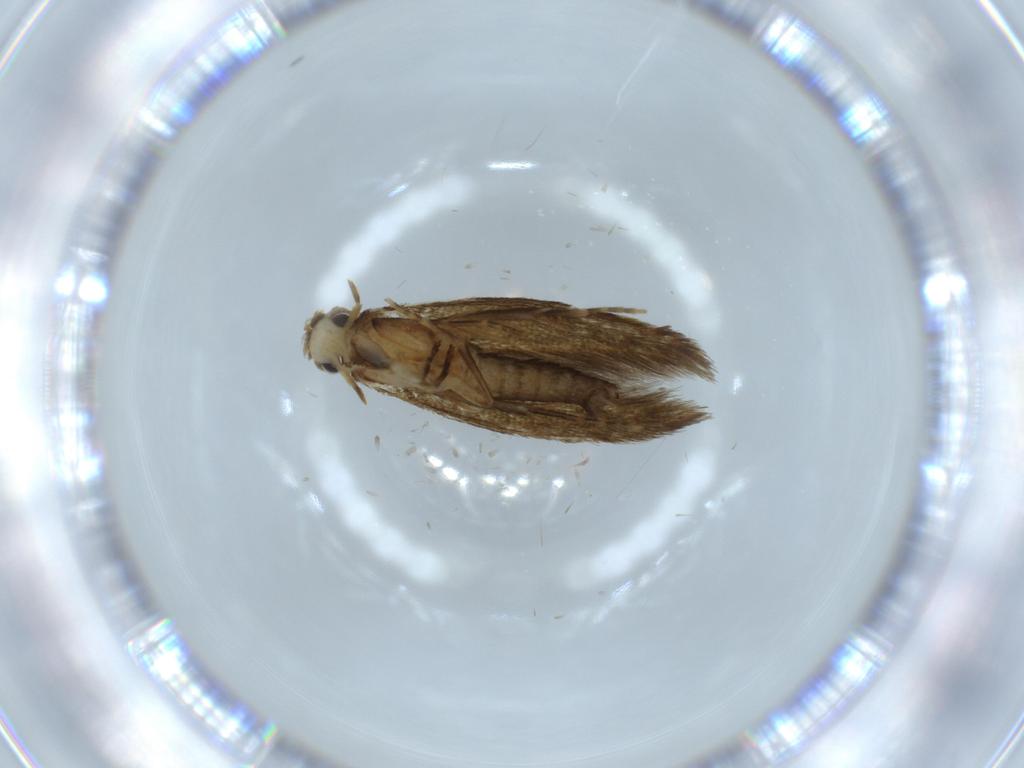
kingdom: Animalia
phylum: Arthropoda
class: Insecta
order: Lepidoptera
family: Tineidae
